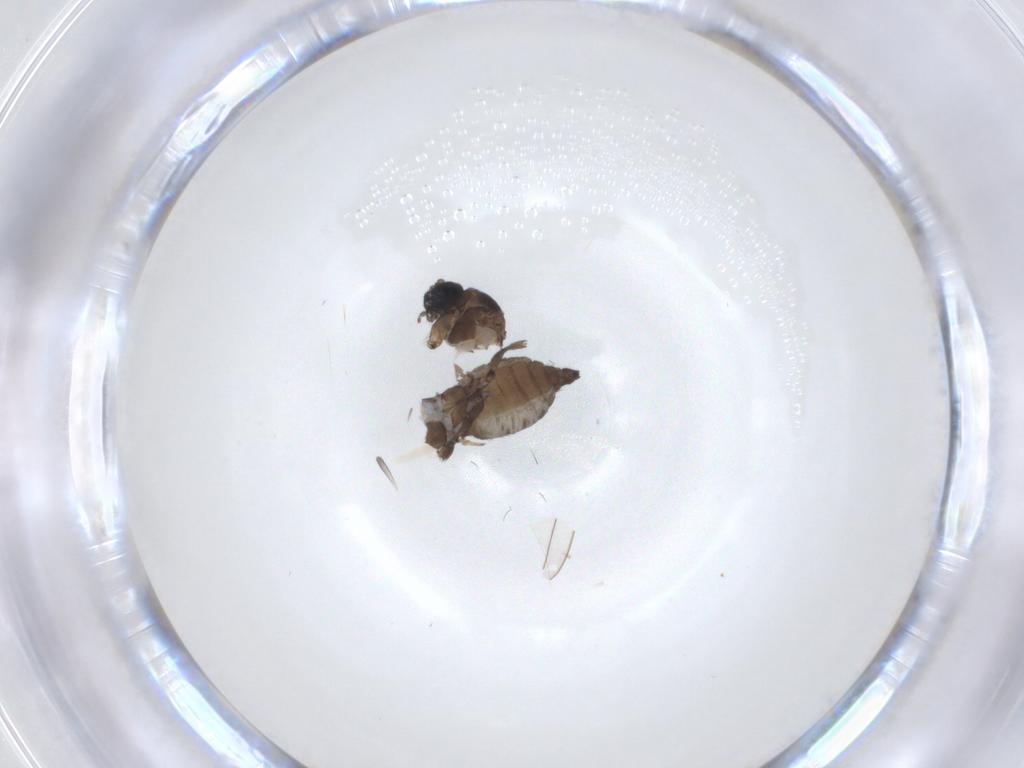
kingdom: Animalia
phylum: Arthropoda
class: Insecta
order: Diptera
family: Sciaridae
